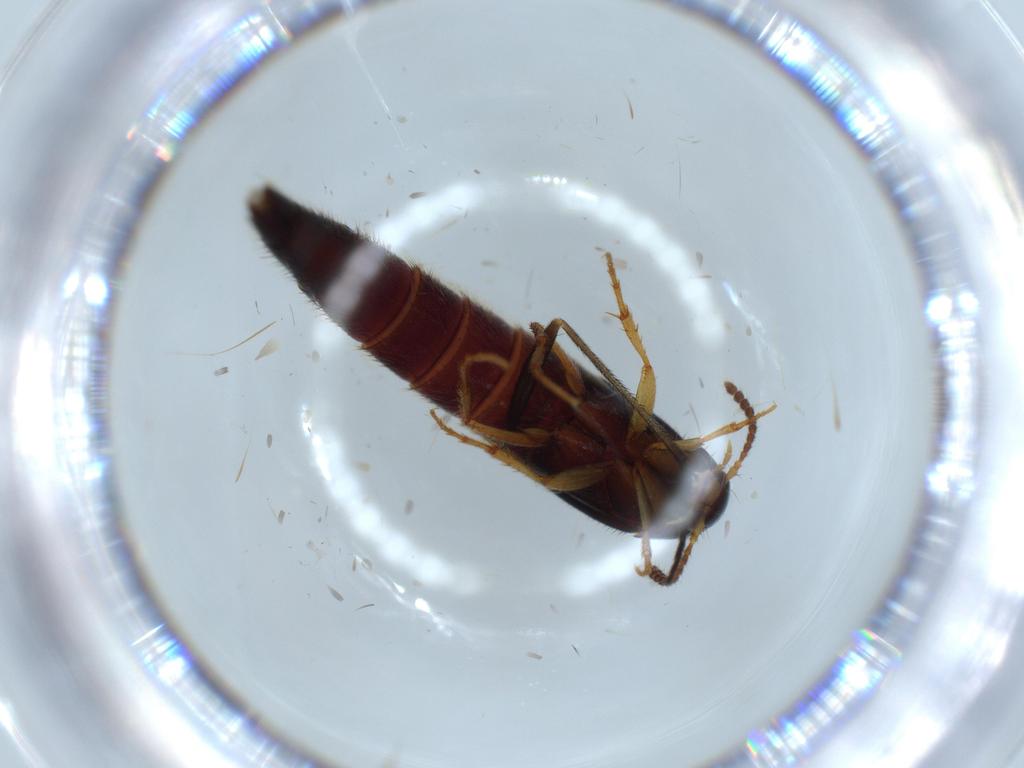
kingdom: Animalia
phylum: Arthropoda
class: Insecta
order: Coleoptera
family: Staphylinidae
